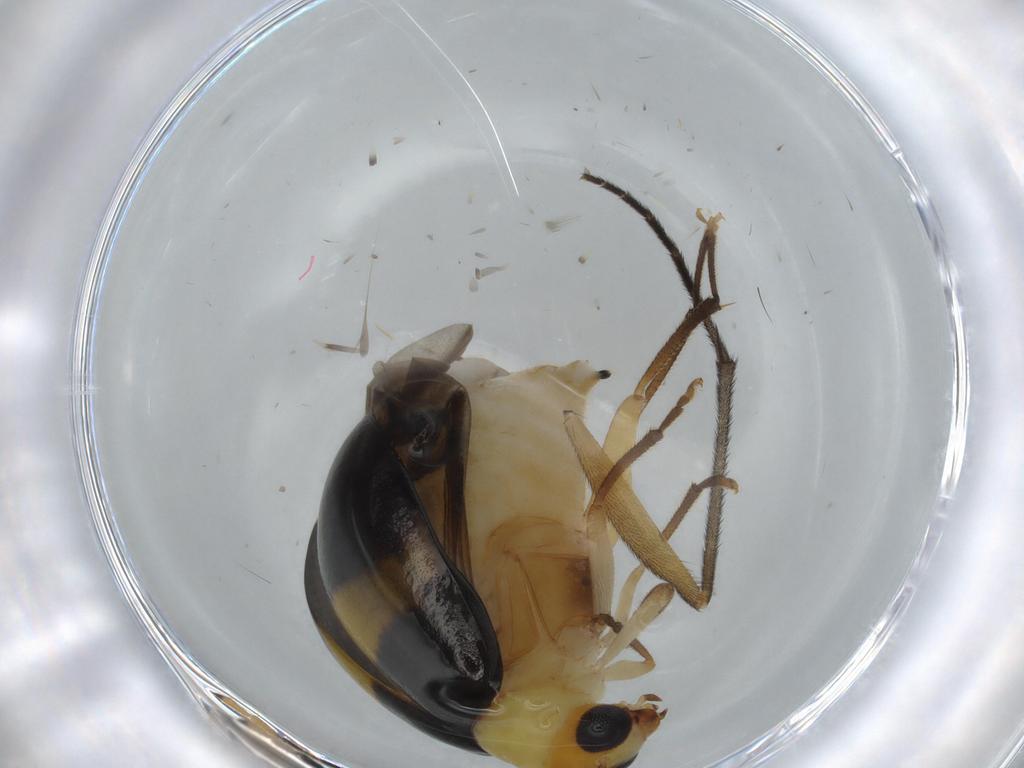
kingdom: Animalia
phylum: Arthropoda
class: Insecta
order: Coleoptera
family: Chrysomelidae
